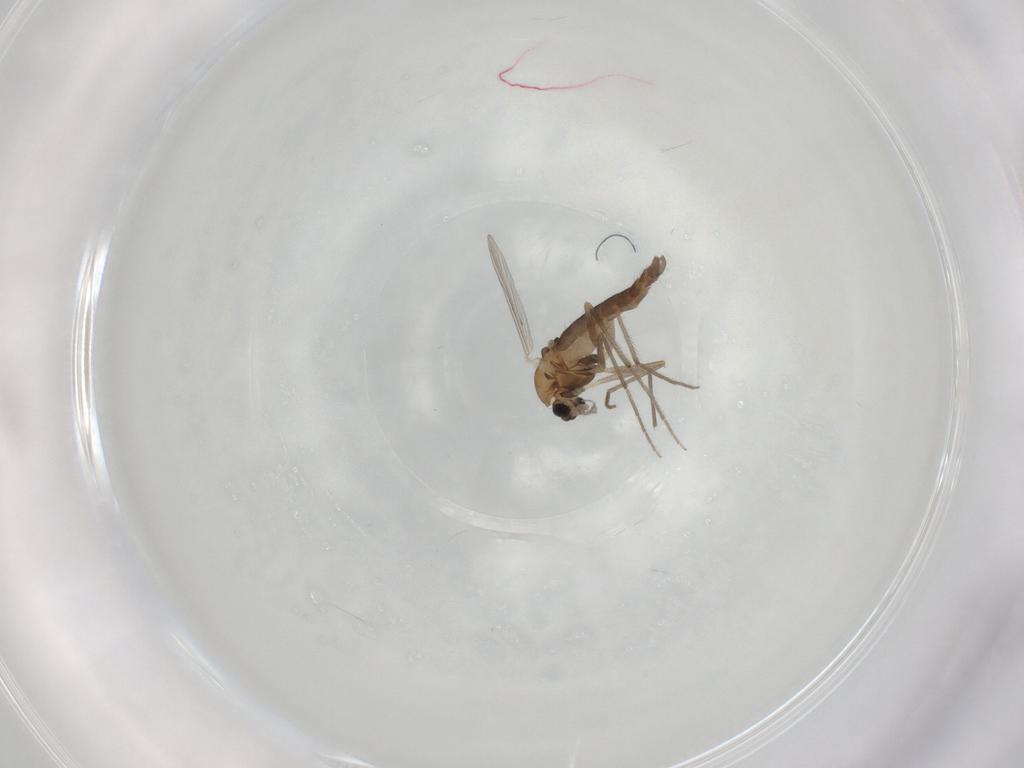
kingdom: Animalia
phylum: Arthropoda
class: Insecta
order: Diptera
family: Chironomidae
